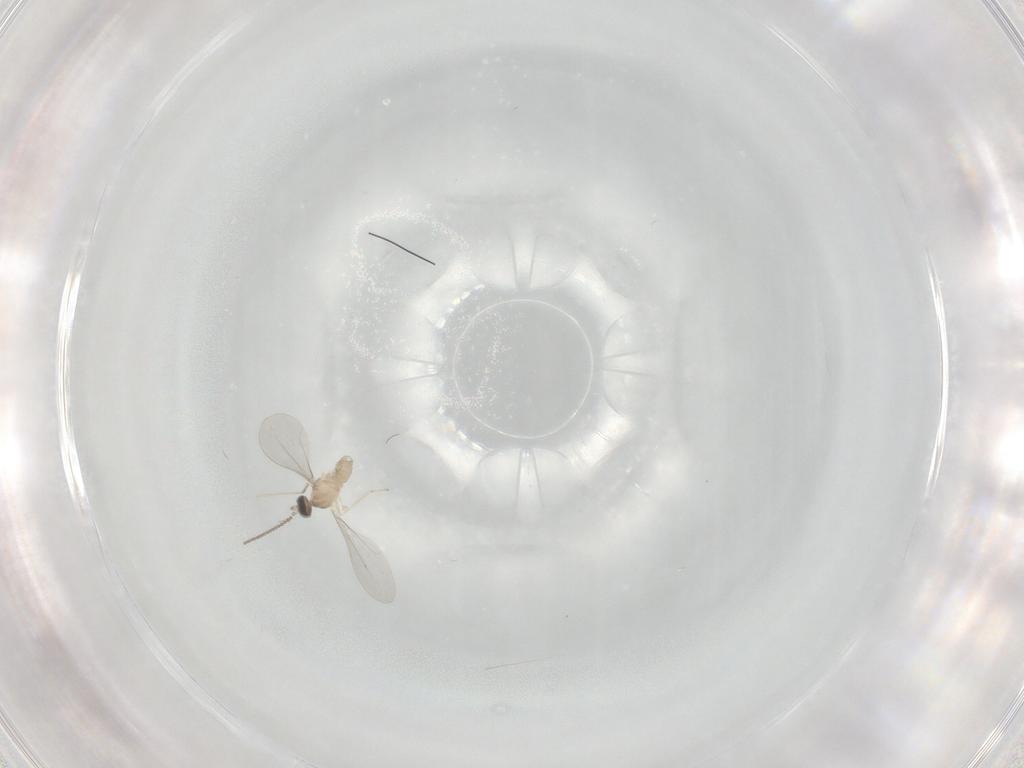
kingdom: Animalia
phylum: Arthropoda
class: Insecta
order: Diptera
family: Cecidomyiidae
